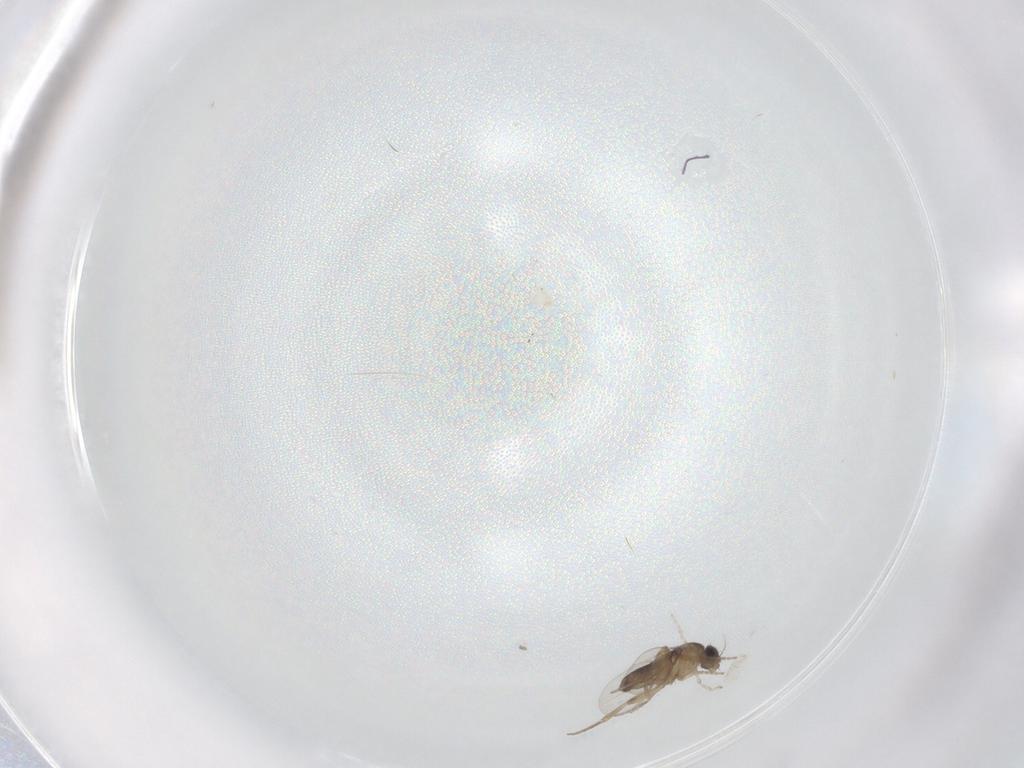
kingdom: Animalia
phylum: Arthropoda
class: Insecta
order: Diptera
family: Phoridae
